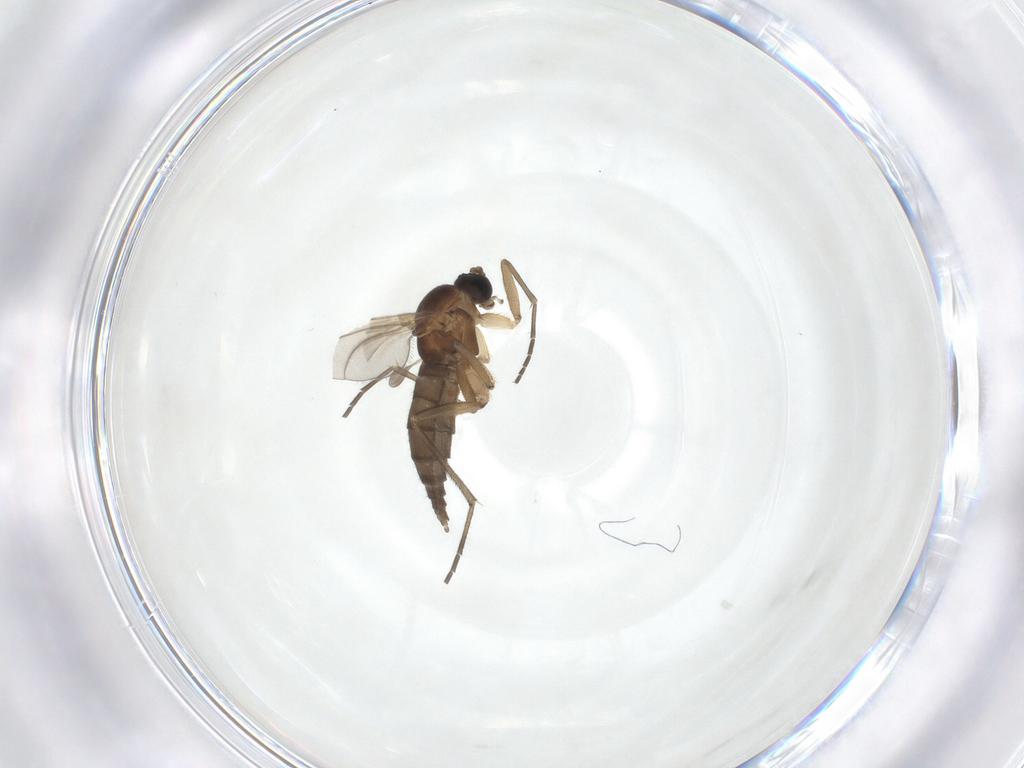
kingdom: Animalia
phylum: Arthropoda
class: Insecta
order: Diptera
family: Sciaridae
